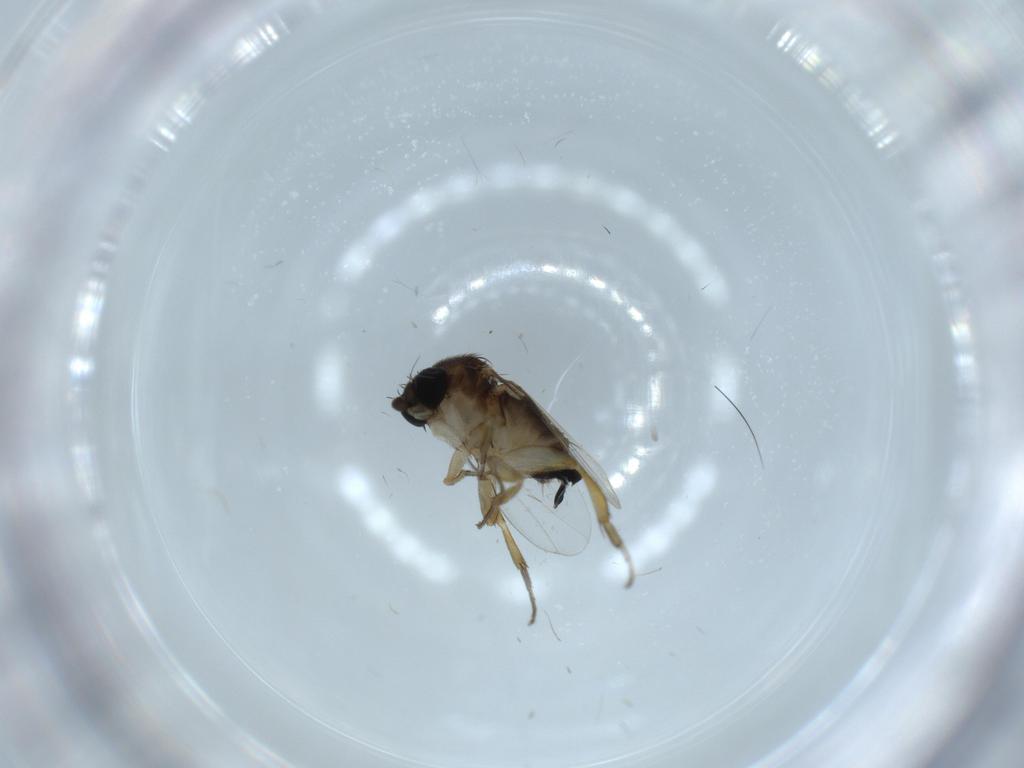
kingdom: Animalia
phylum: Arthropoda
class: Insecta
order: Diptera
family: Phoridae
